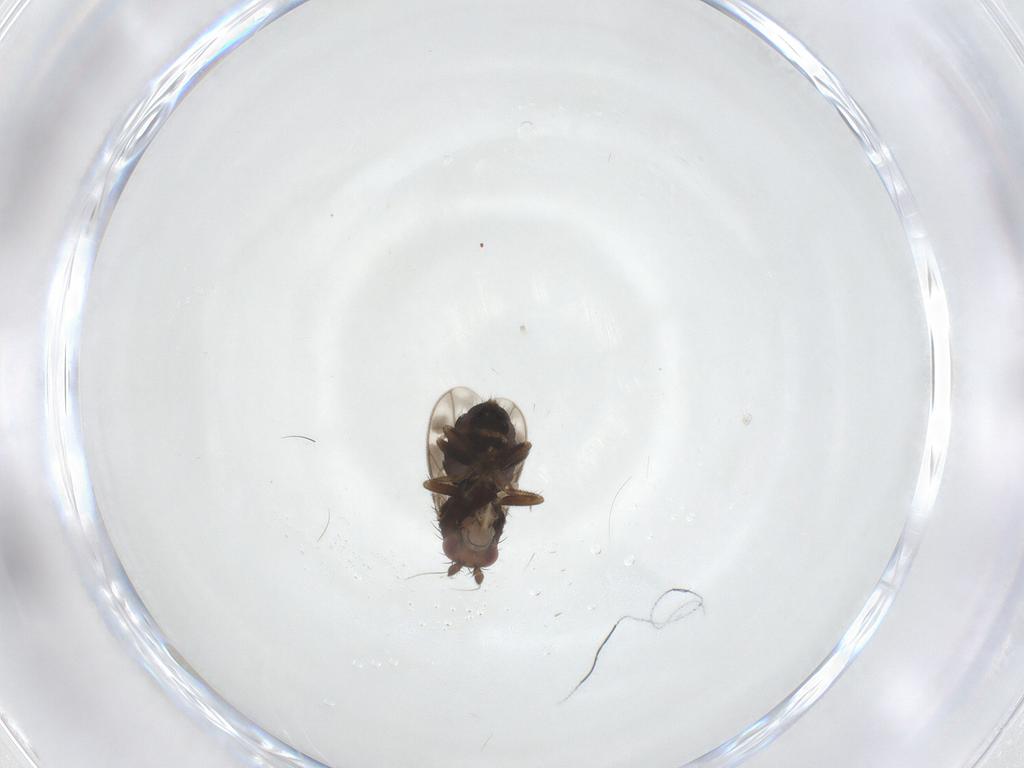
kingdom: Animalia
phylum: Arthropoda
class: Insecta
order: Diptera
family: Sphaeroceridae
